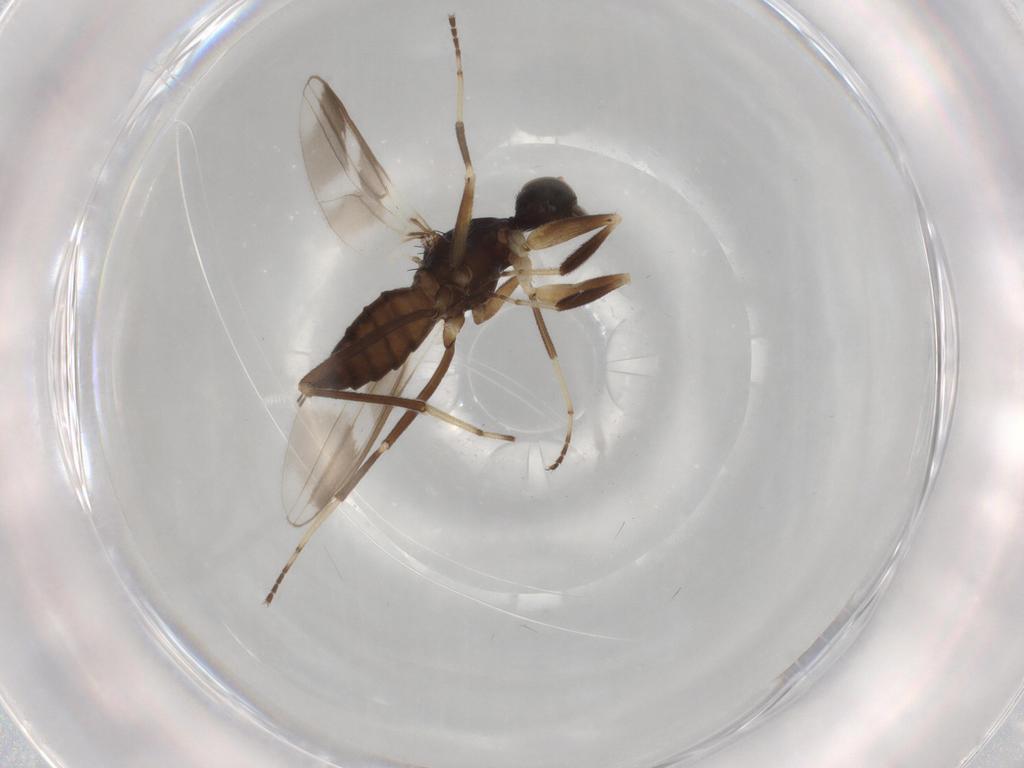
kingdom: Animalia
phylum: Arthropoda
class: Insecta
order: Diptera
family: Hybotidae
